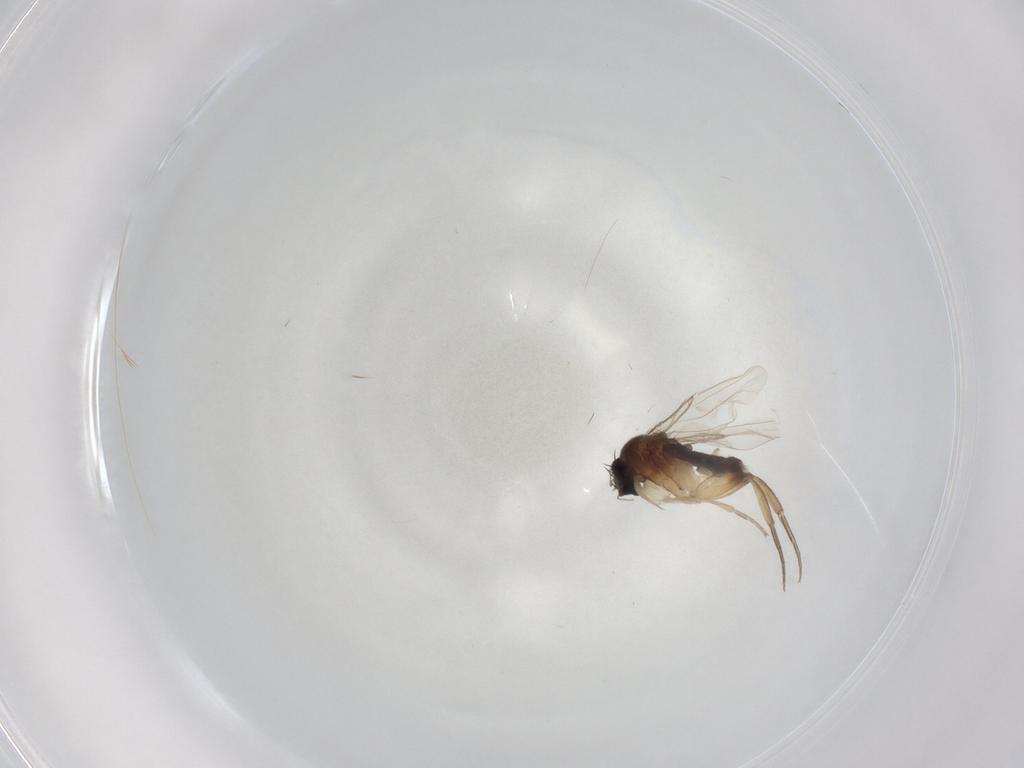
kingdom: Animalia
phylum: Arthropoda
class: Insecta
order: Diptera
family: Phoridae
